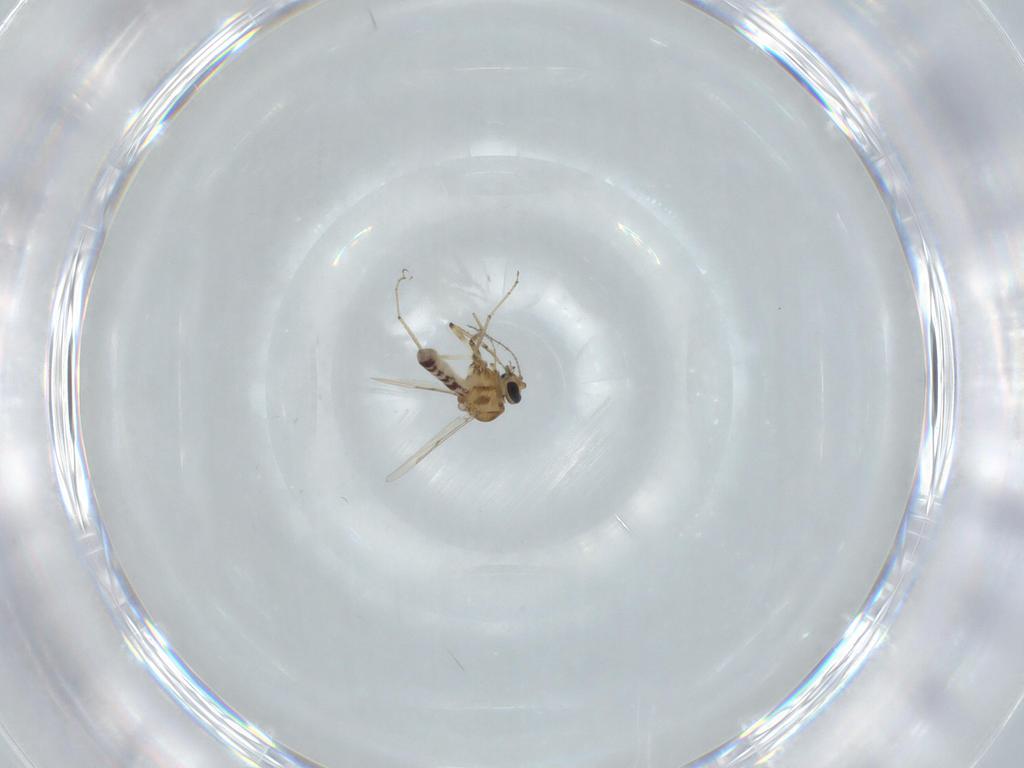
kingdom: Animalia
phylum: Arthropoda
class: Insecta
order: Diptera
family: Ceratopogonidae
